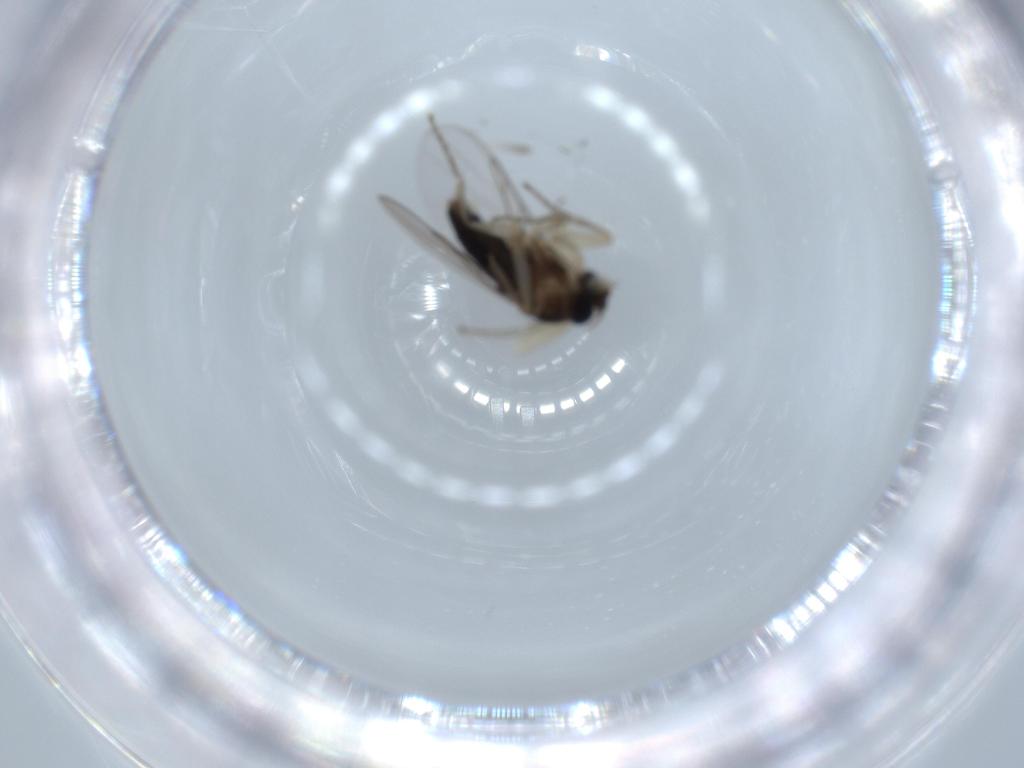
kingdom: Animalia
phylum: Arthropoda
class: Insecta
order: Diptera
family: Phoridae
